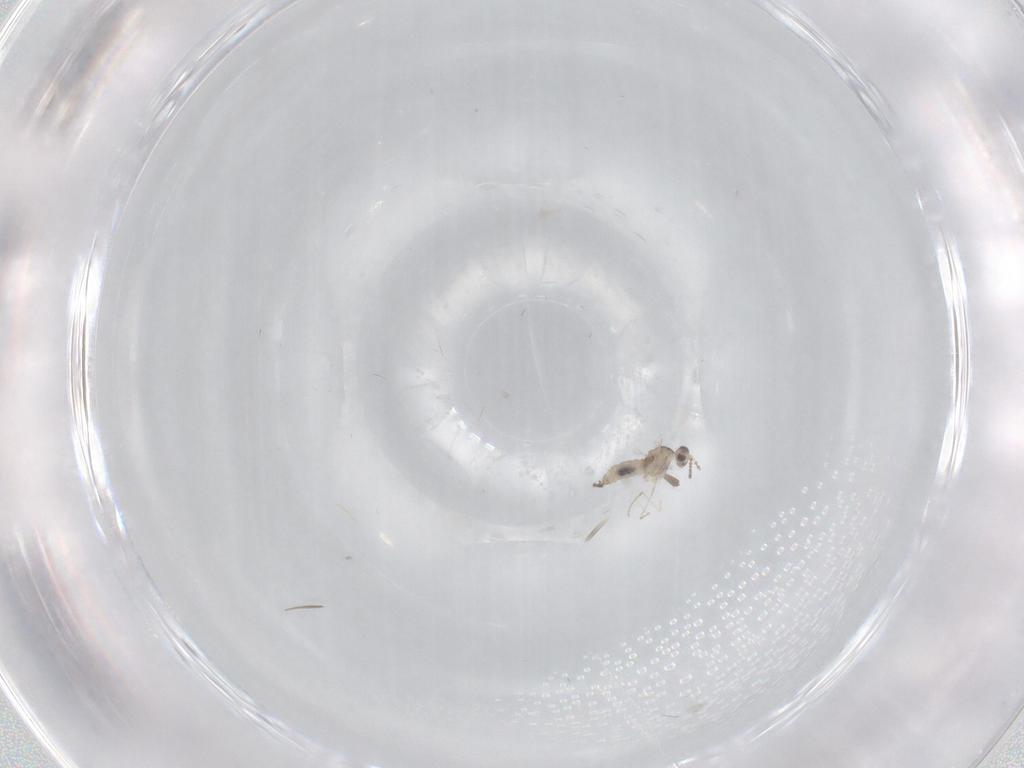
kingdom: Animalia
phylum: Arthropoda
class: Insecta
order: Diptera
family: Cecidomyiidae
